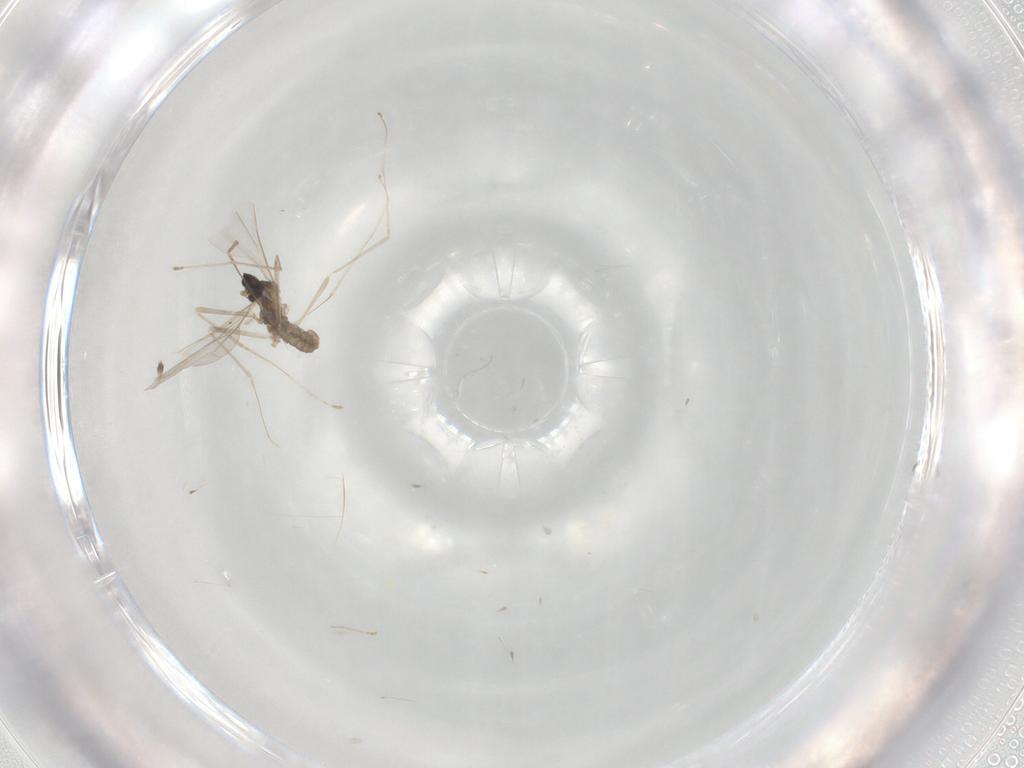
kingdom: Animalia
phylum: Arthropoda
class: Insecta
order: Diptera
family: Cecidomyiidae
